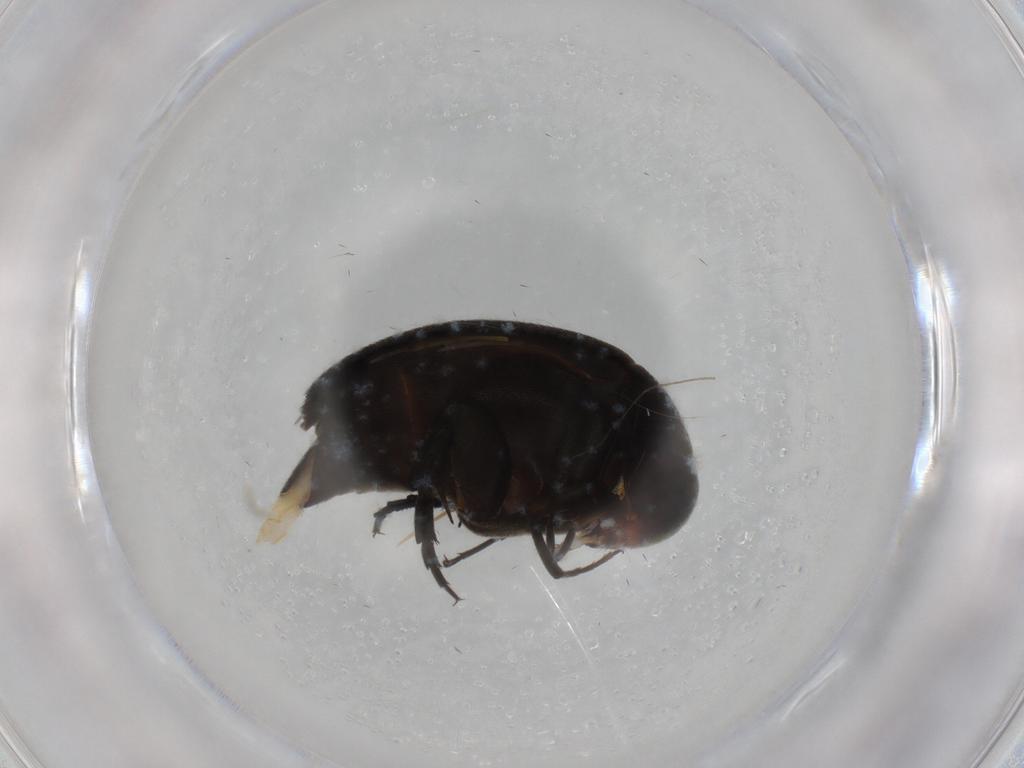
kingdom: Animalia
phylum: Arthropoda
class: Insecta
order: Coleoptera
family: Mordellidae
